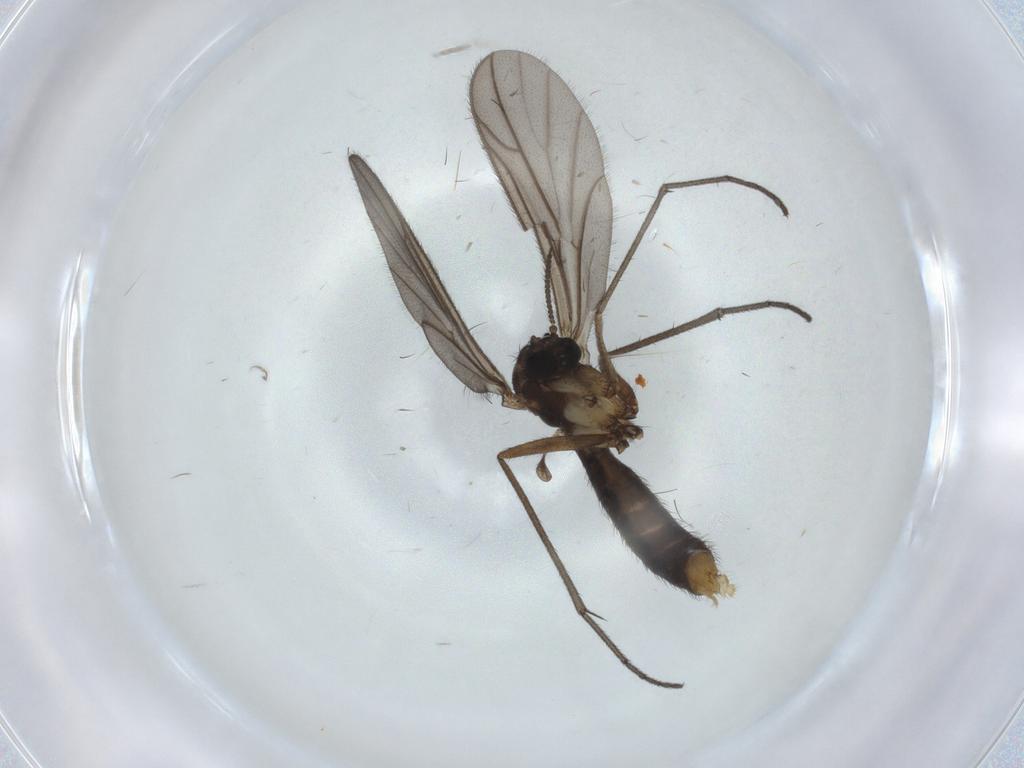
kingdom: Animalia
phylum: Arthropoda
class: Insecta
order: Diptera
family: Ditomyiidae
